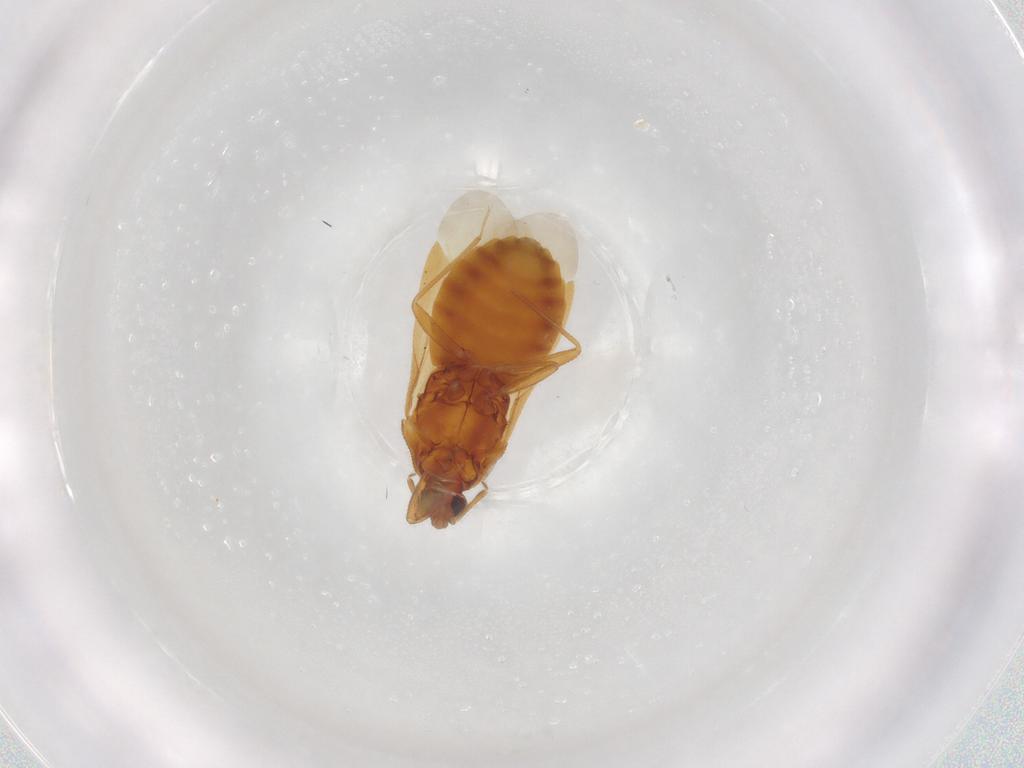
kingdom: Animalia
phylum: Arthropoda
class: Insecta
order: Hemiptera
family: Anthocoridae
